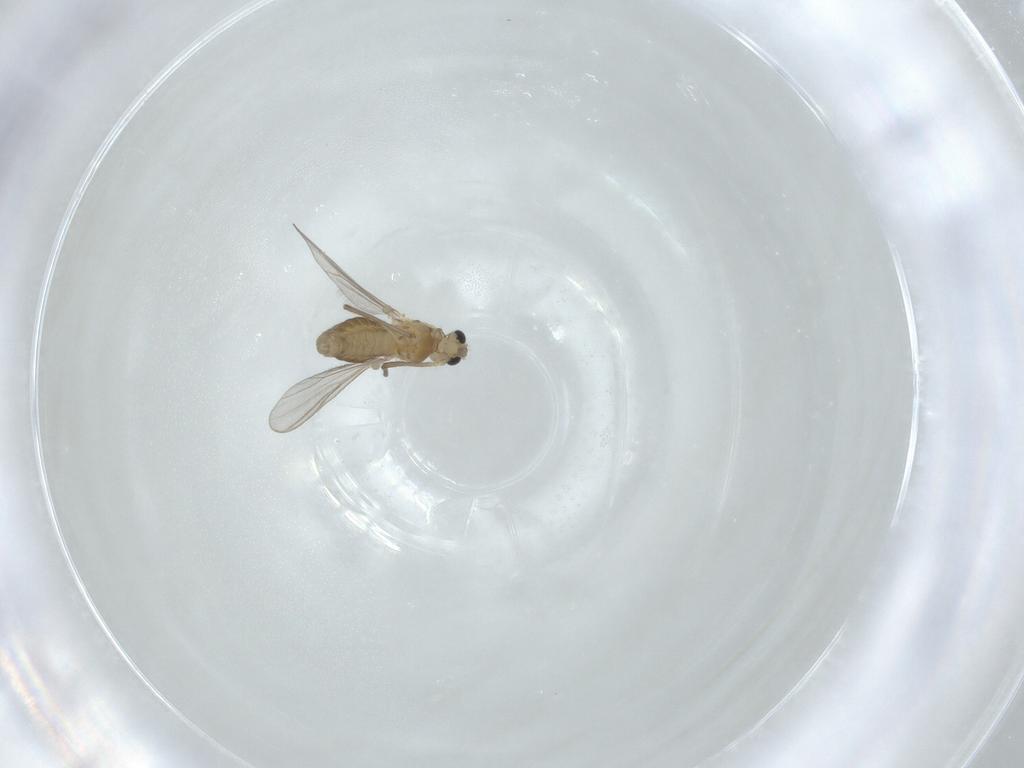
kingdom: Animalia
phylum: Arthropoda
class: Insecta
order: Diptera
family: Chironomidae
